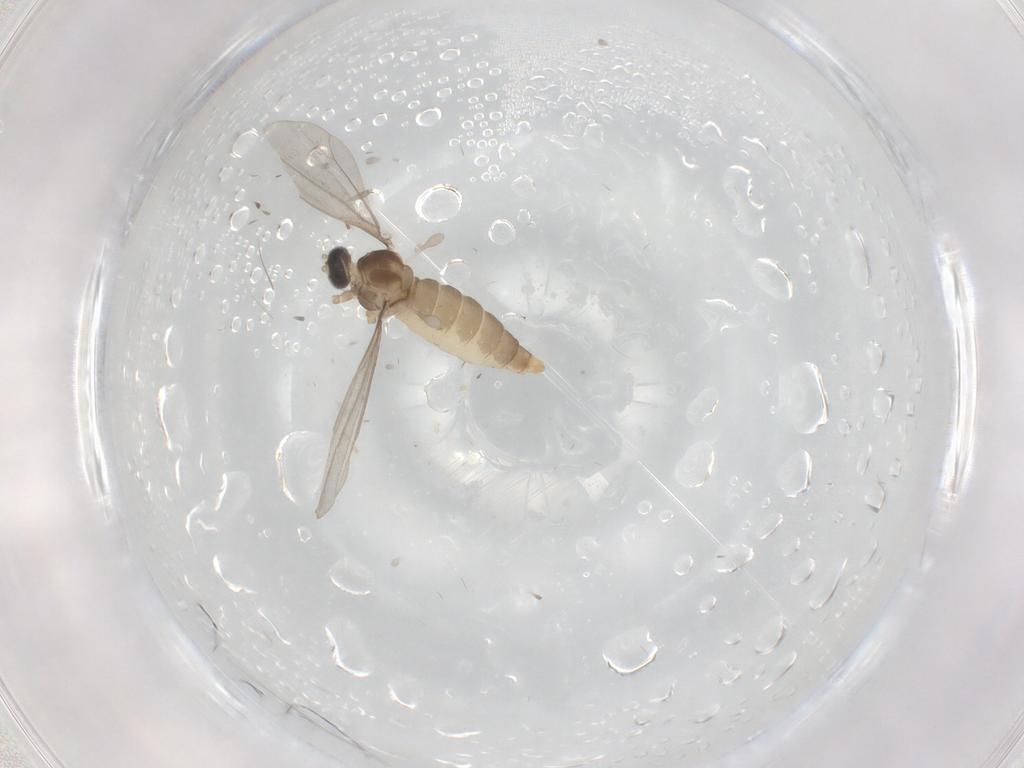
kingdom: Animalia
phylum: Arthropoda
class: Insecta
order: Diptera
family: Cecidomyiidae
